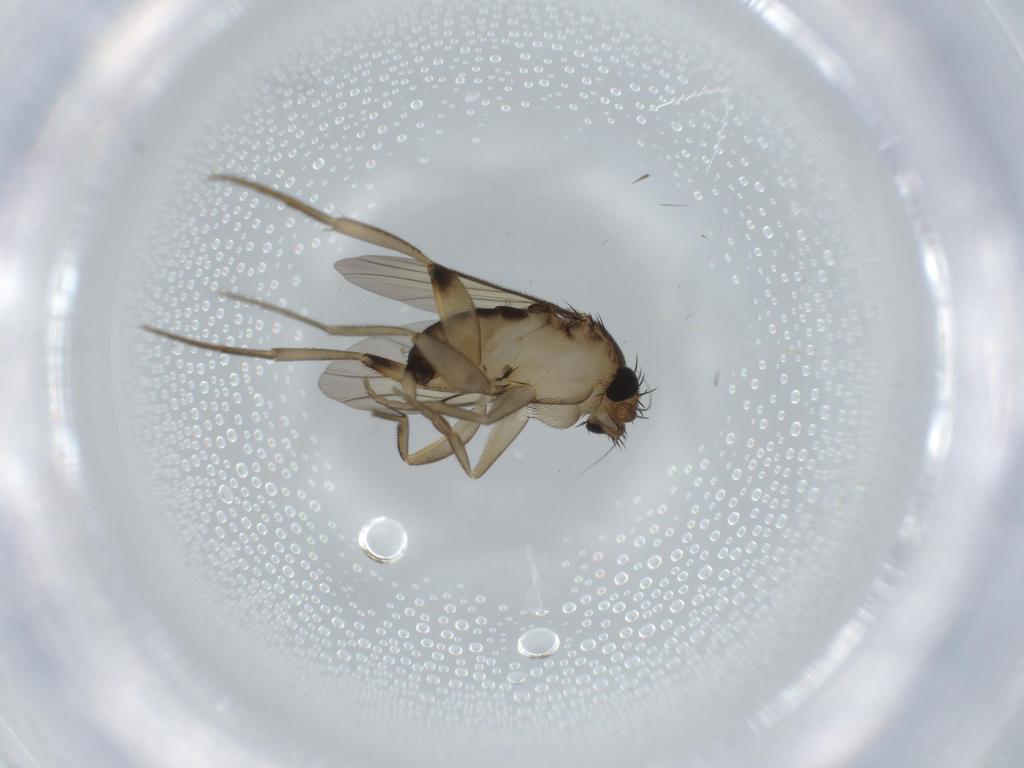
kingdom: Animalia
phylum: Arthropoda
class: Insecta
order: Diptera
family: Phoridae
